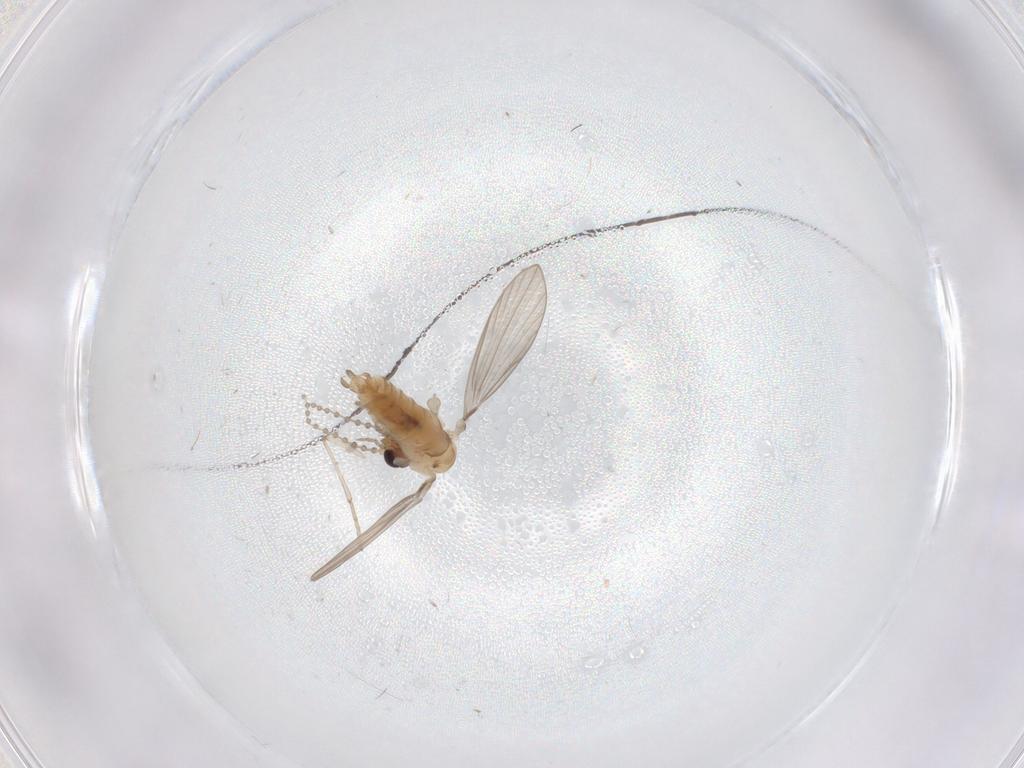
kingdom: Animalia
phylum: Arthropoda
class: Insecta
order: Diptera
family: Psychodidae
